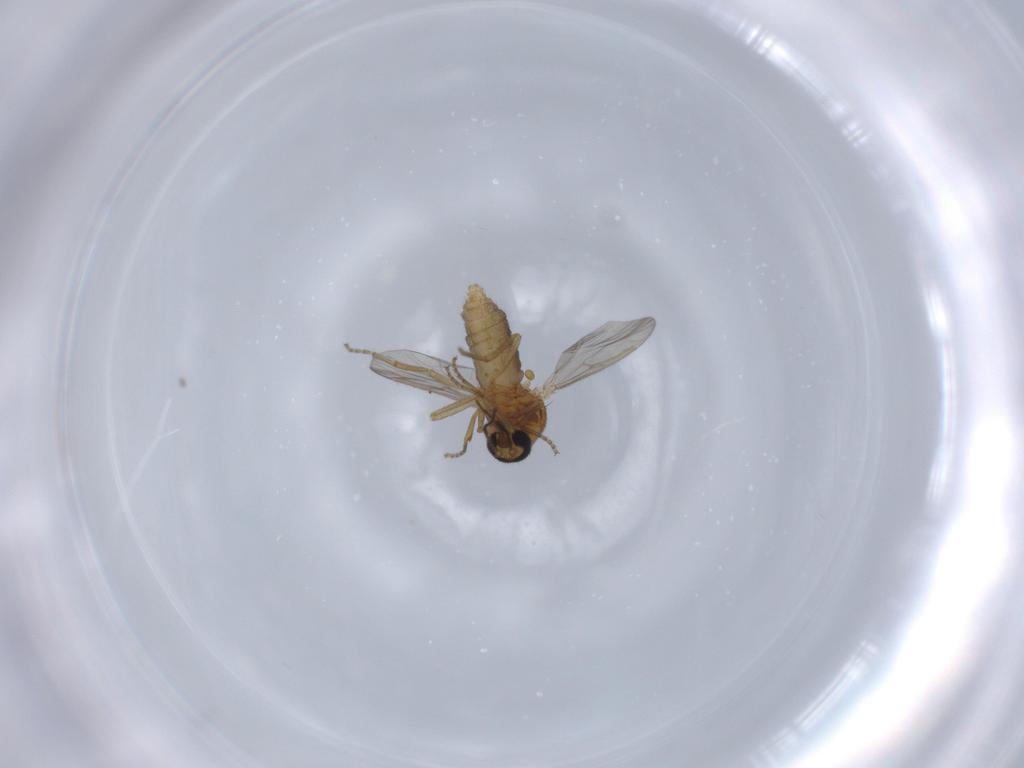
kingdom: Animalia
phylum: Arthropoda
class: Insecta
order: Diptera
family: Ceratopogonidae
